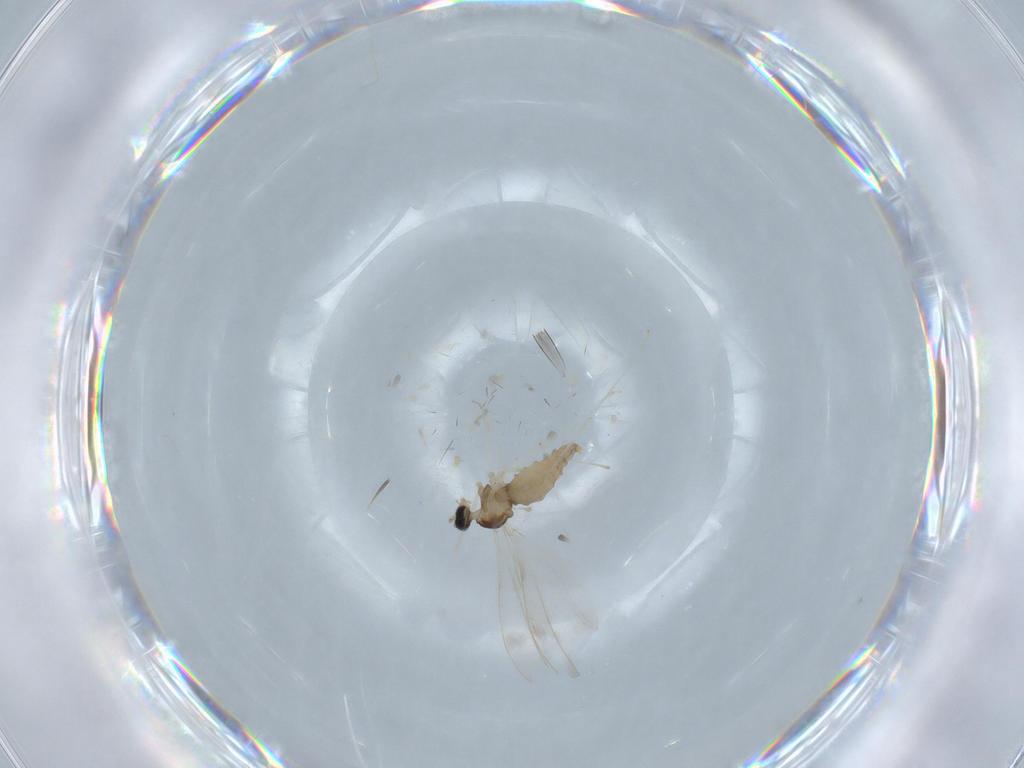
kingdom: Animalia
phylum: Arthropoda
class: Insecta
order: Diptera
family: Cecidomyiidae
